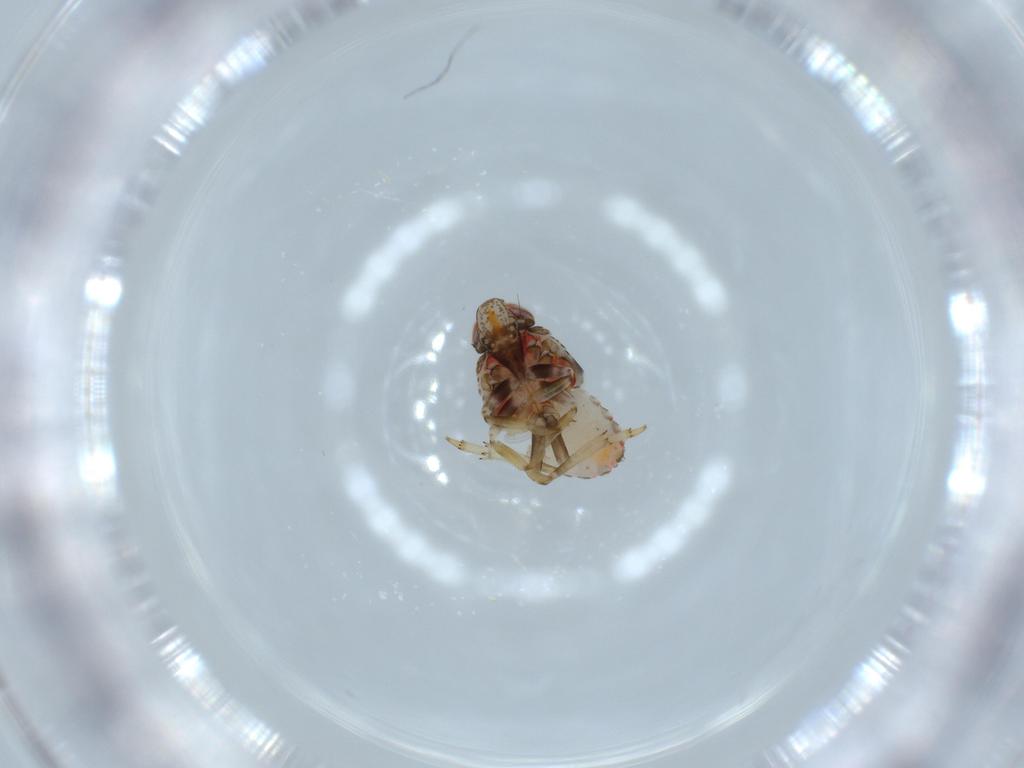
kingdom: Animalia
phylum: Arthropoda
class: Insecta
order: Hemiptera
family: Issidae
